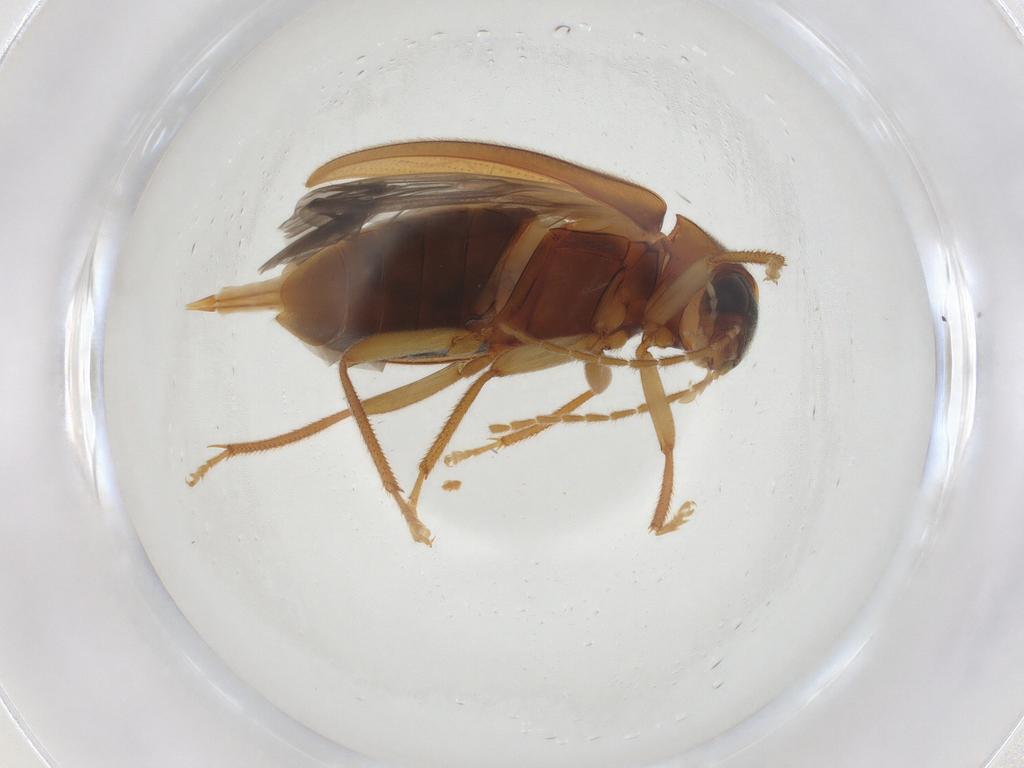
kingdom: Animalia
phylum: Arthropoda
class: Insecta
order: Coleoptera
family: Ptilodactylidae
